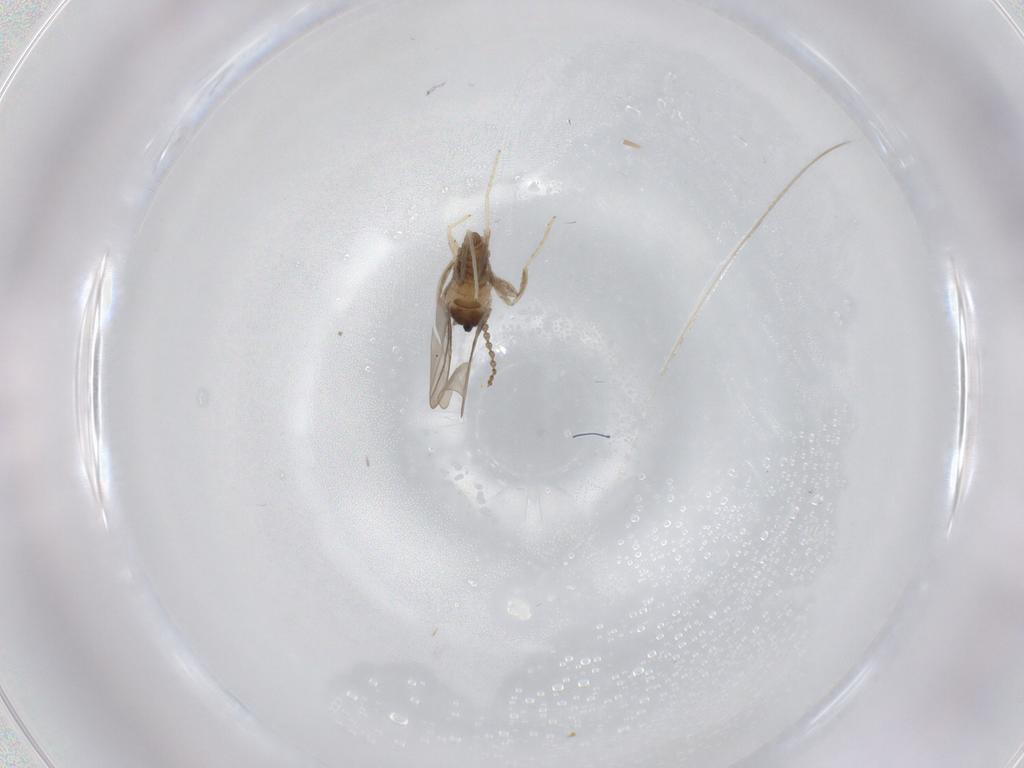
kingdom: Animalia
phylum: Arthropoda
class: Insecta
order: Diptera
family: Cecidomyiidae
